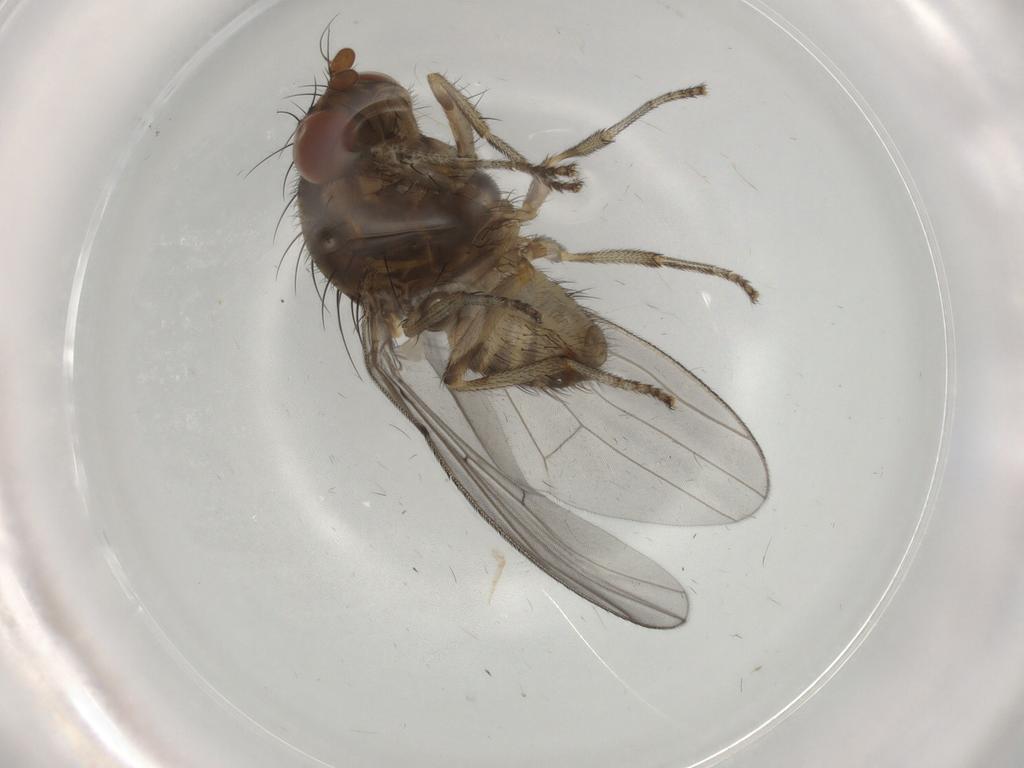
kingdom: Animalia
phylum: Arthropoda
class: Insecta
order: Diptera
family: Lauxaniidae
